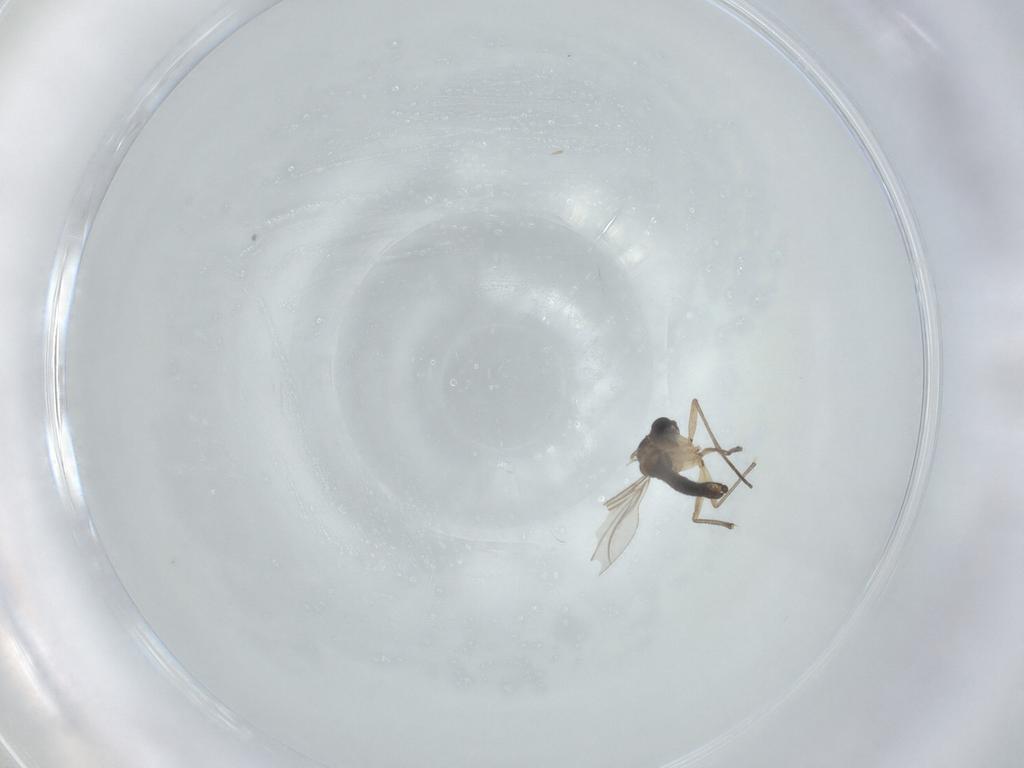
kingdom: Animalia
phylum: Arthropoda
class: Insecta
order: Diptera
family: Sciaridae
